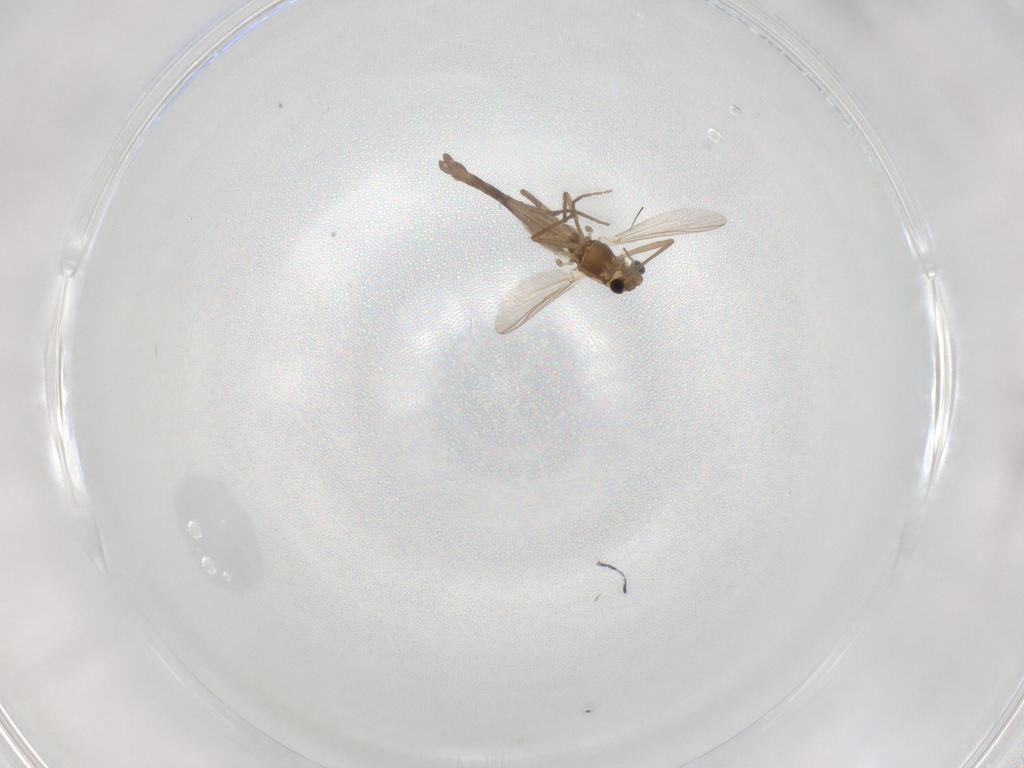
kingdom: Animalia
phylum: Arthropoda
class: Insecta
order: Diptera
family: Chironomidae
